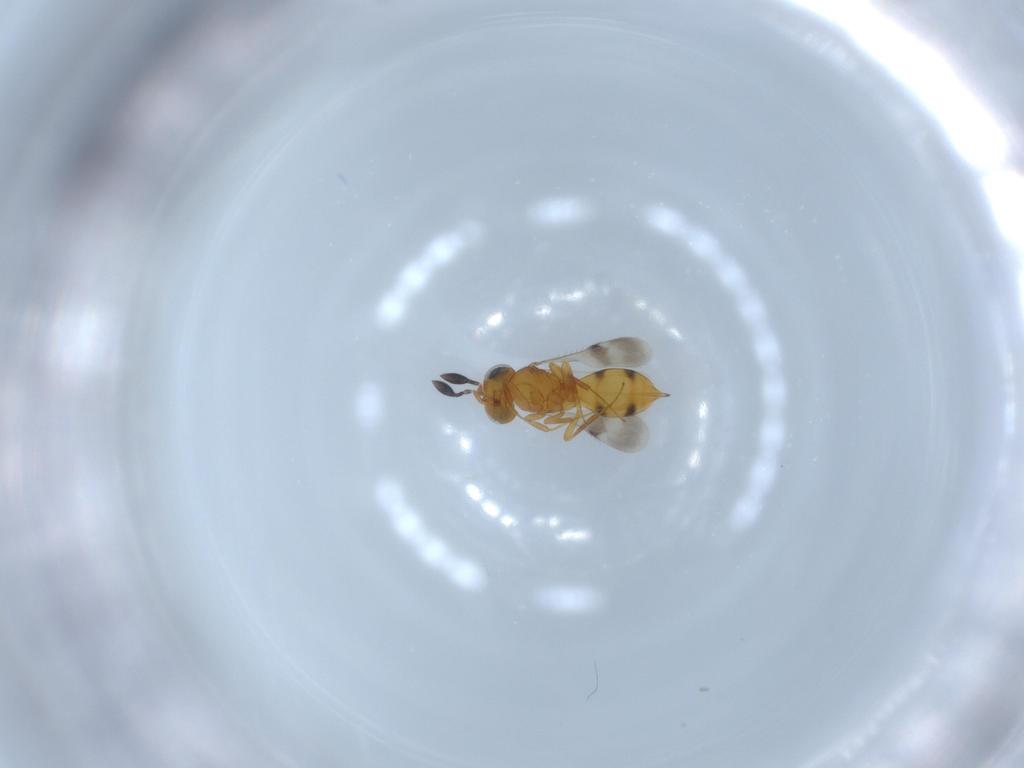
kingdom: Animalia
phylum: Arthropoda
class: Insecta
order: Hymenoptera
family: Scelionidae
